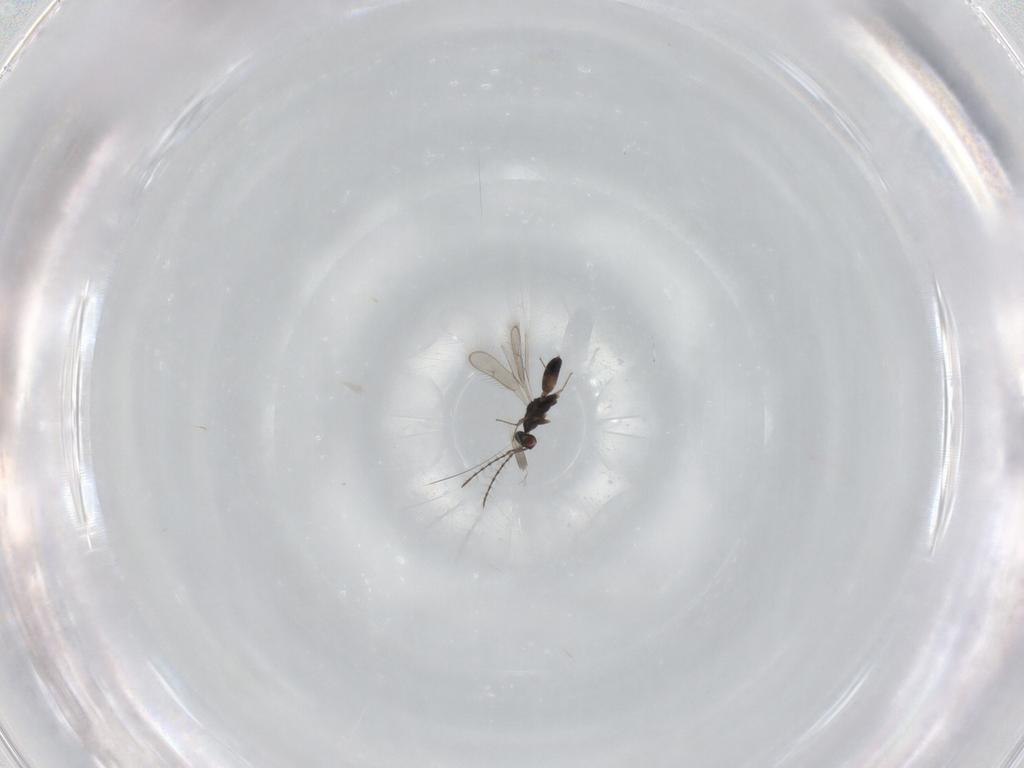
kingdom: Animalia
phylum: Arthropoda
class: Insecta
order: Hymenoptera
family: Pteromalidae
